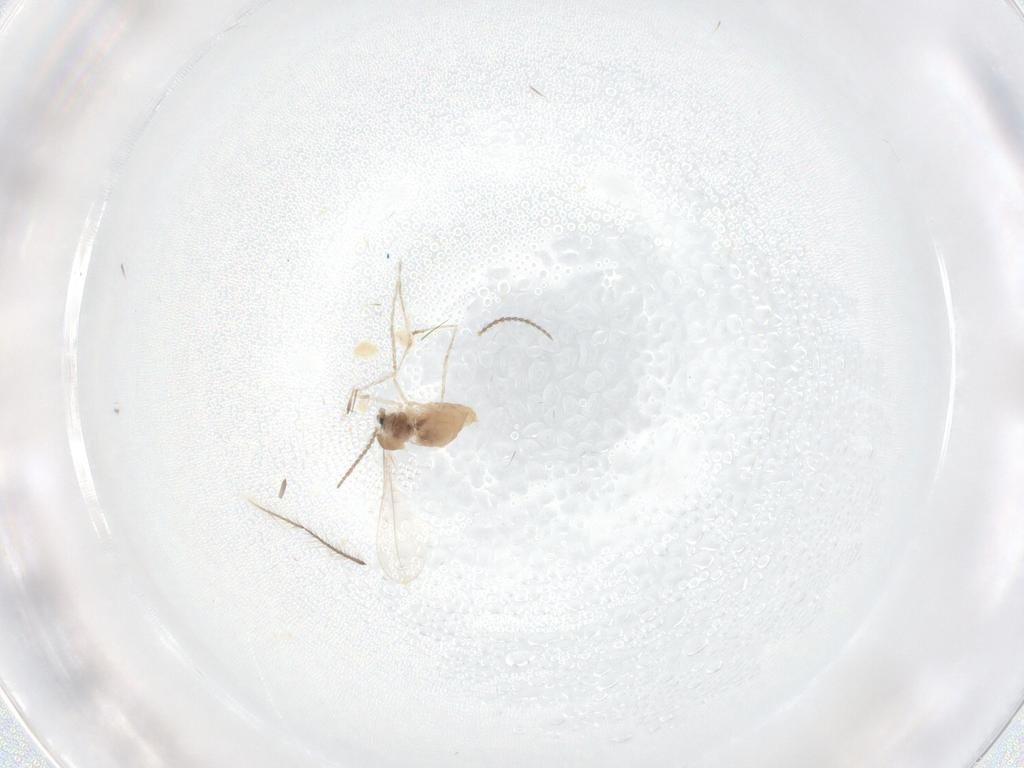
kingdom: Animalia
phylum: Arthropoda
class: Insecta
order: Diptera
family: Cecidomyiidae
